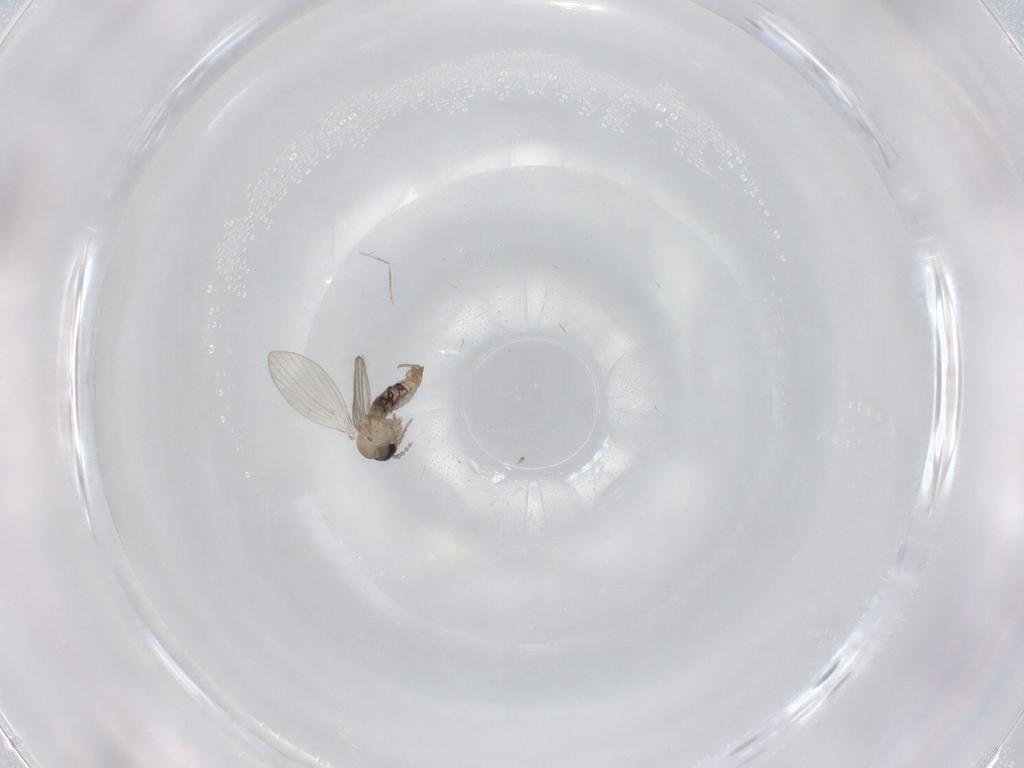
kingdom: Animalia
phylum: Arthropoda
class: Insecta
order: Diptera
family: Psychodidae
